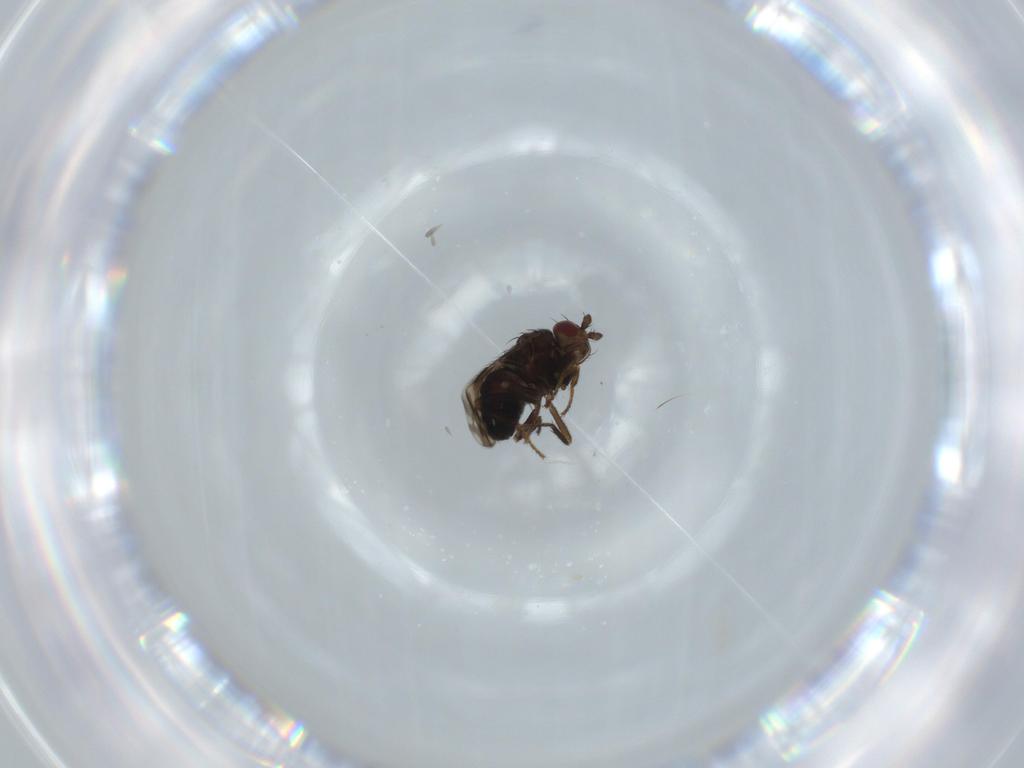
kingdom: Animalia
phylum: Arthropoda
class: Insecta
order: Diptera
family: Sphaeroceridae
